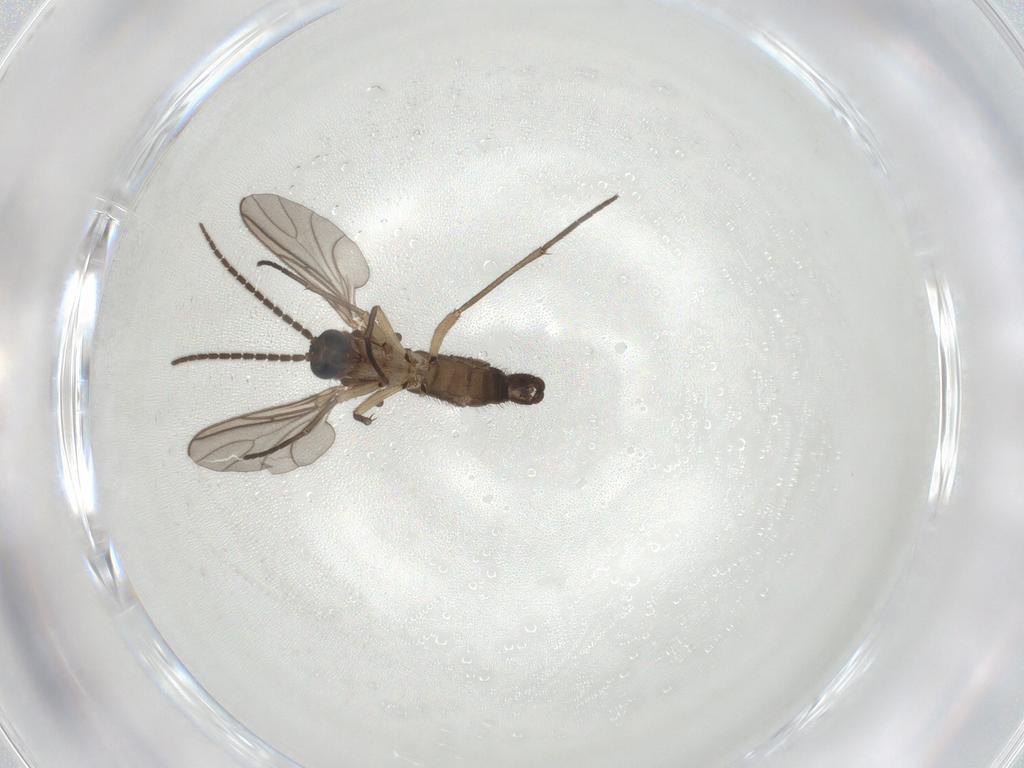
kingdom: Animalia
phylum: Arthropoda
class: Insecta
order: Diptera
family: Sciaridae
